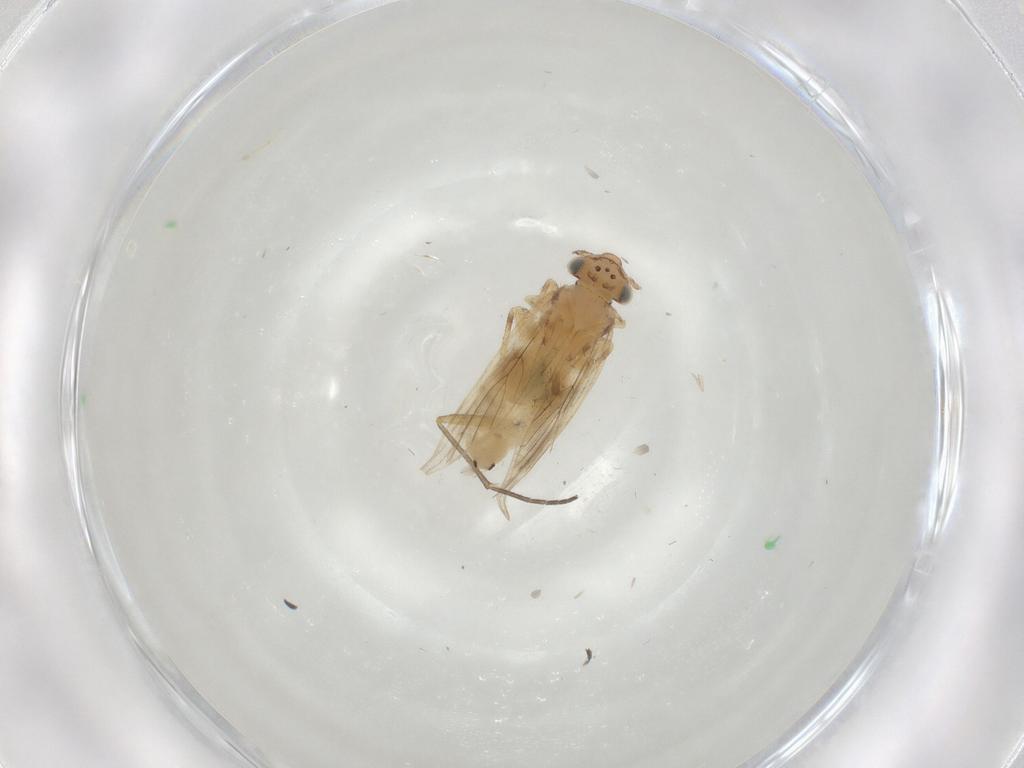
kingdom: Animalia
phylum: Arthropoda
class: Insecta
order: Psocodea
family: Lepidopsocidae
